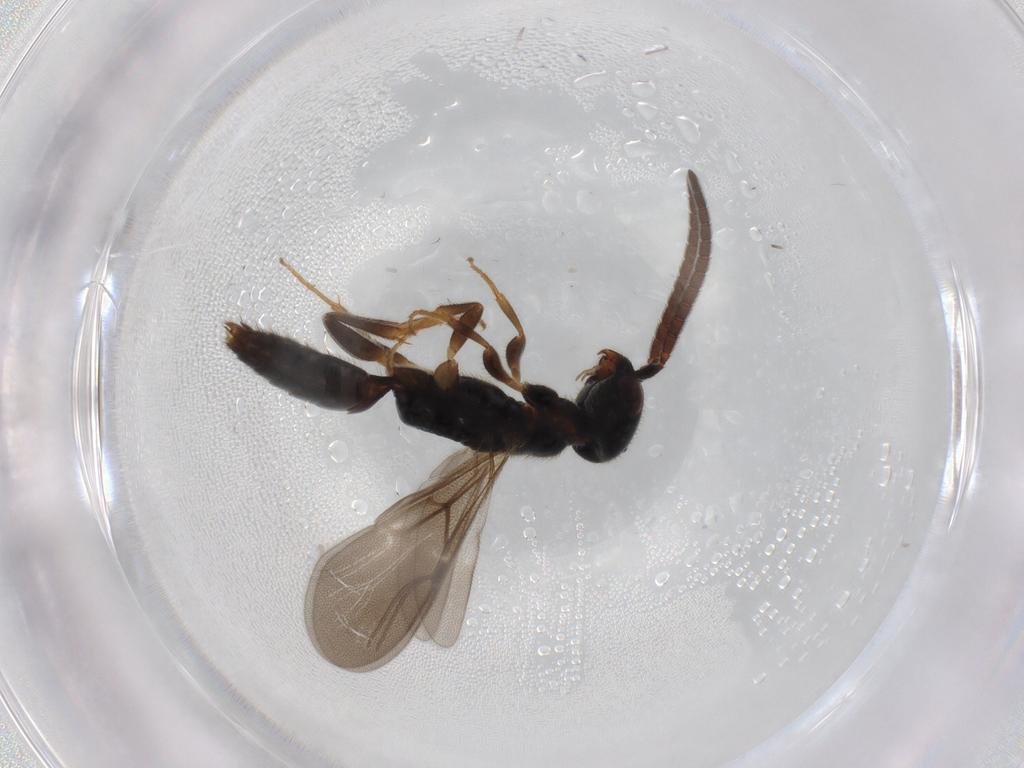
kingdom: Animalia
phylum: Arthropoda
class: Insecta
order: Hymenoptera
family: Bethylidae
